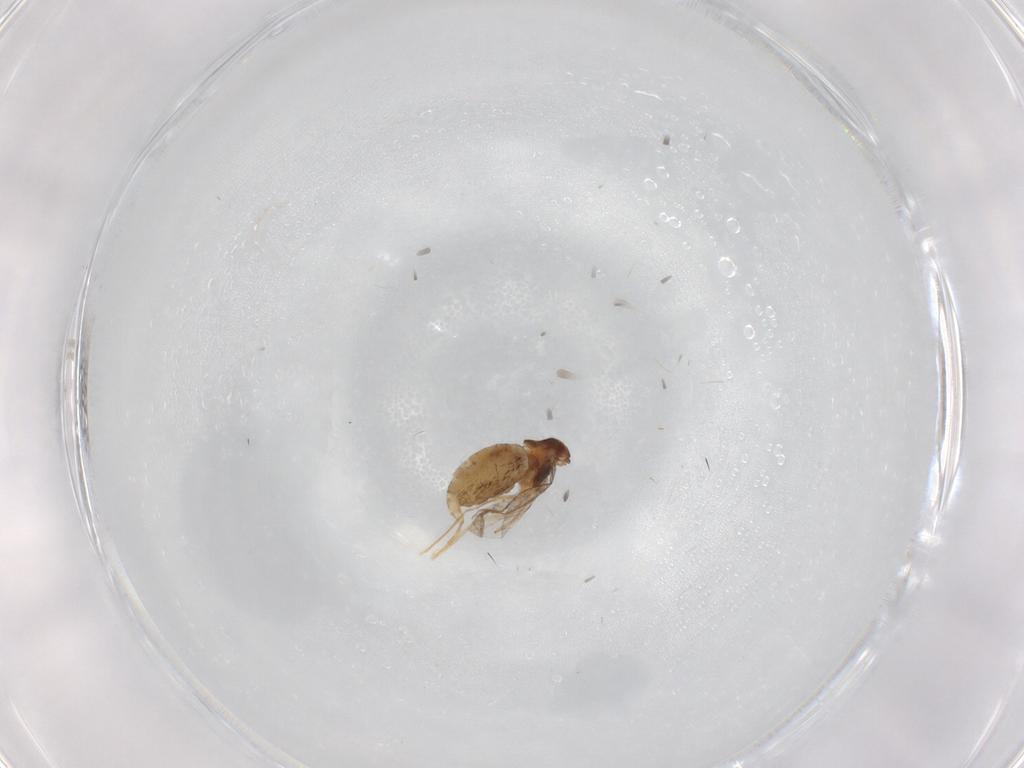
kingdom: Animalia
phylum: Arthropoda
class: Insecta
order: Diptera
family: Cecidomyiidae
